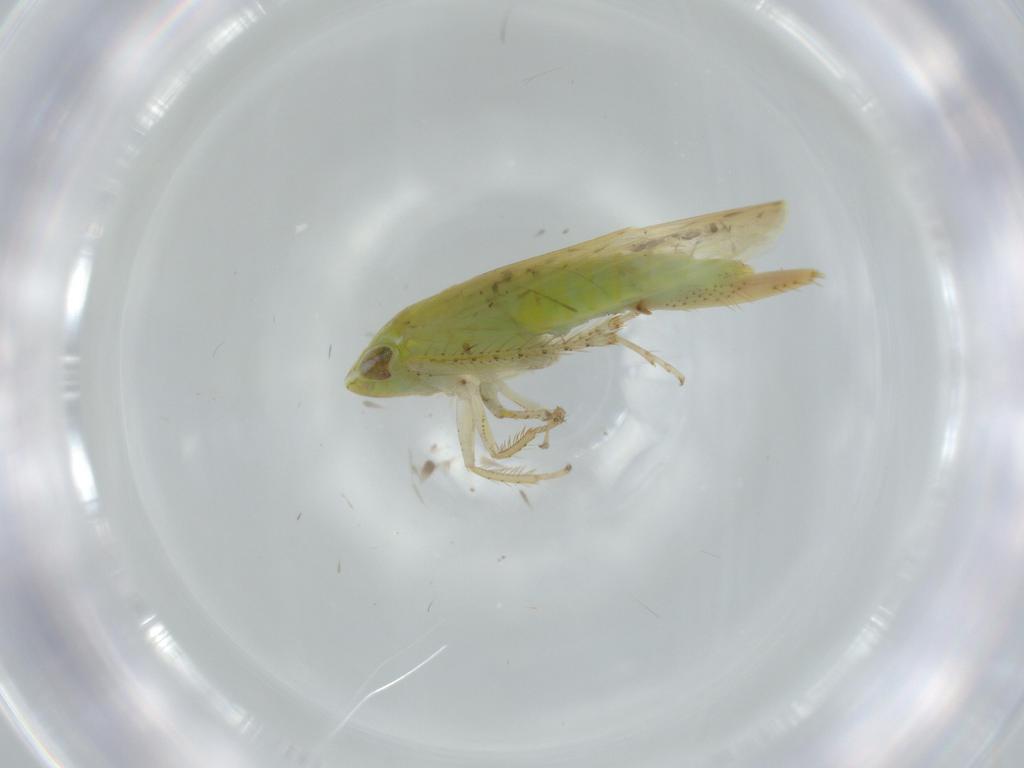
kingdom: Animalia
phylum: Arthropoda
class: Insecta
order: Hemiptera
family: Cicadellidae
